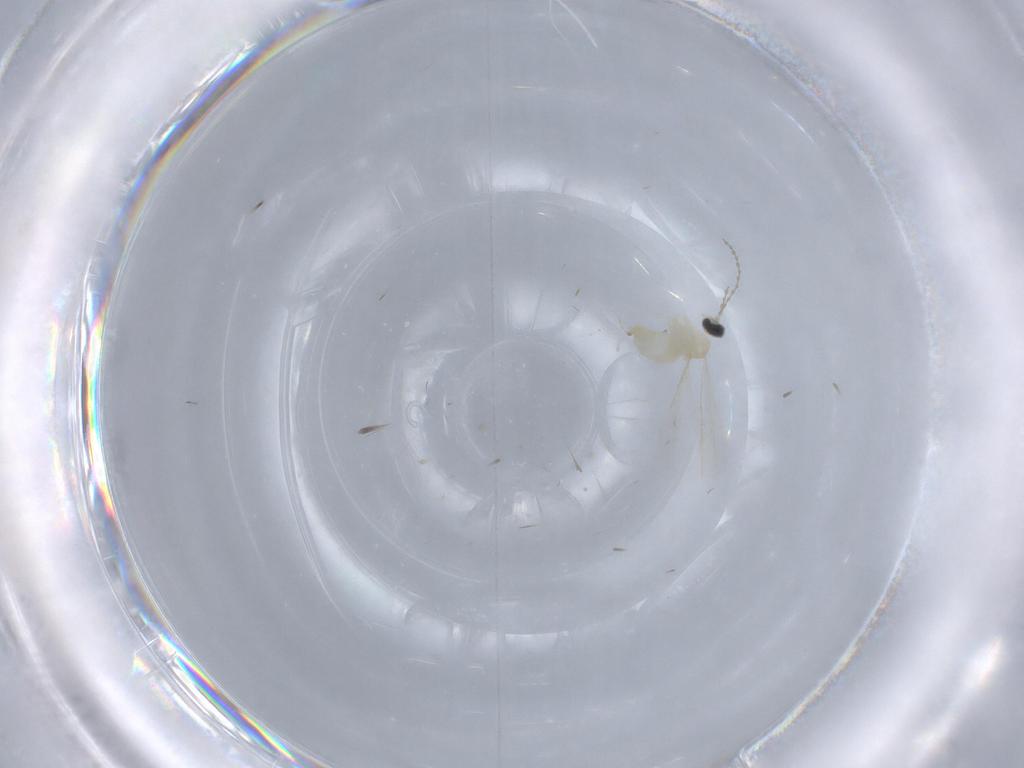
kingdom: Animalia
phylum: Arthropoda
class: Insecta
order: Diptera
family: Cecidomyiidae
